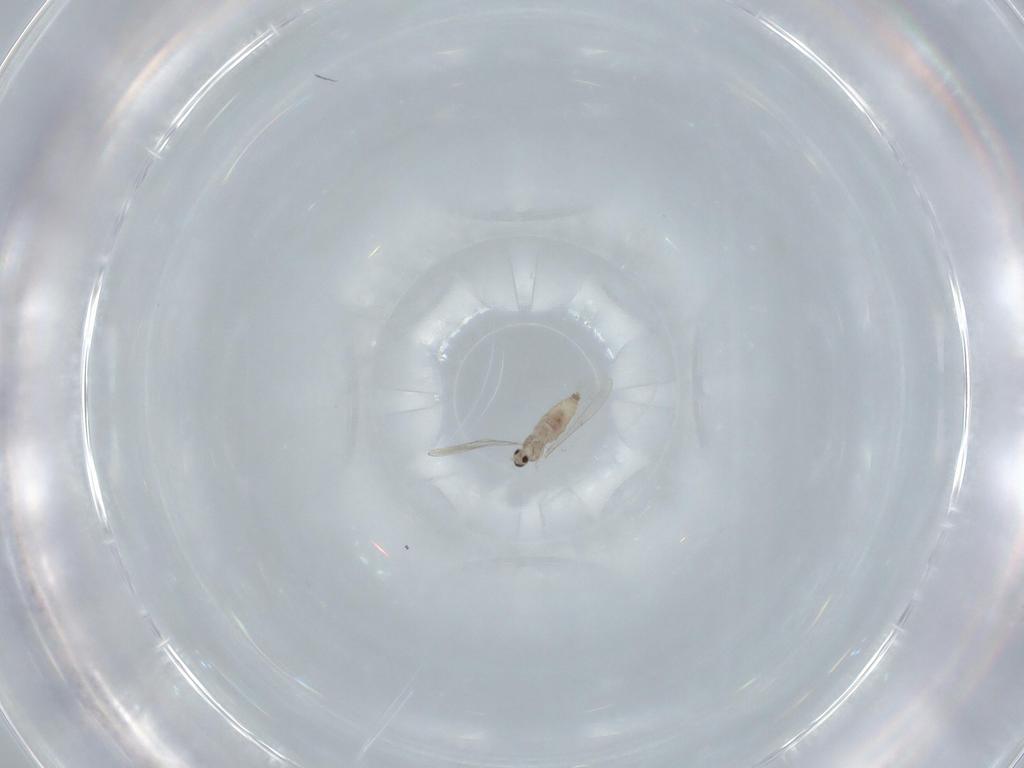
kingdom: Animalia
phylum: Arthropoda
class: Insecta
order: Diptera
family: Cecidomyiidae
